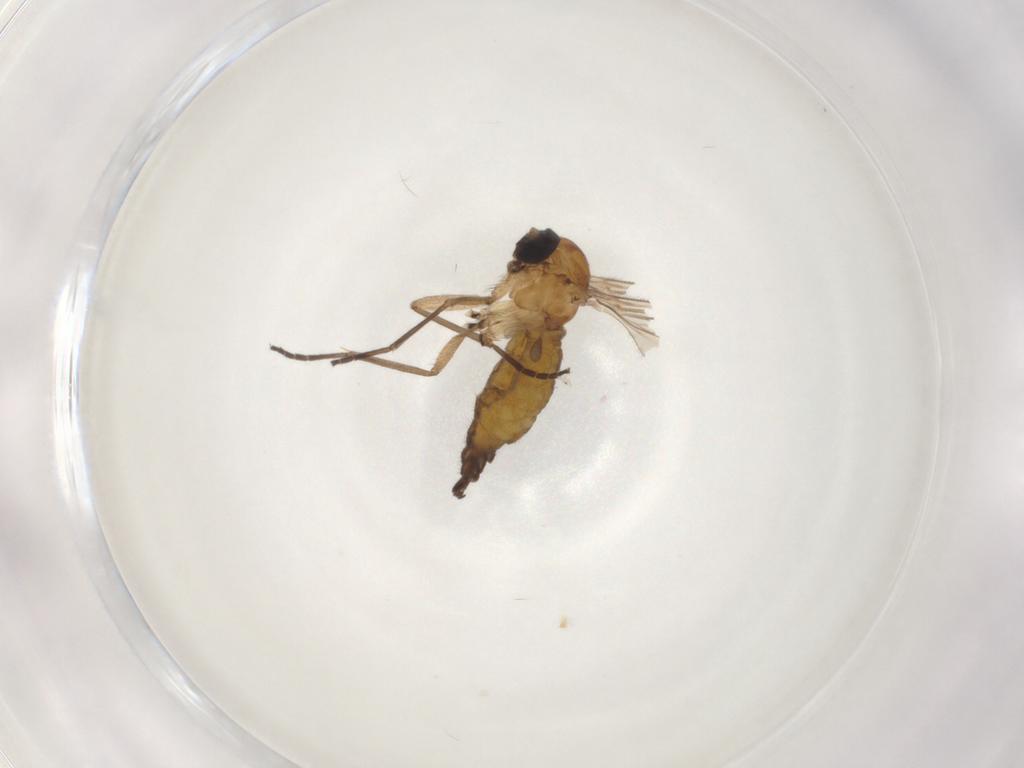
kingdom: Animalia
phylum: Arthropoda
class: Insecta
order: Diptera
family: Sciaridae
